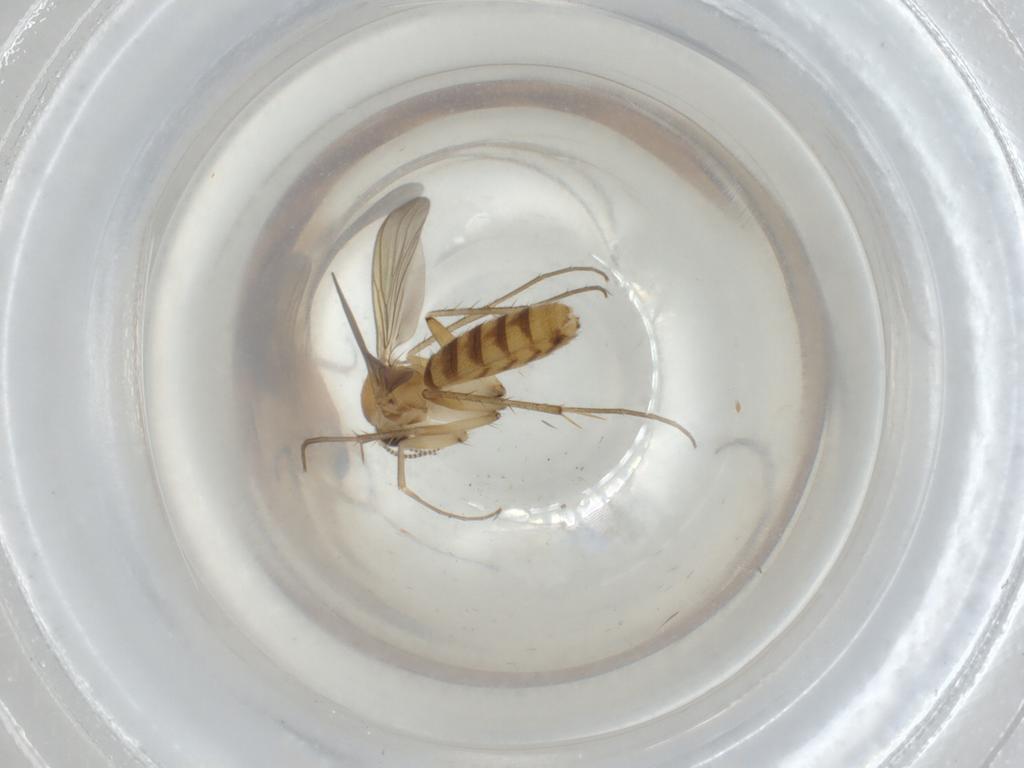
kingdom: Animalia
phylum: Arthropoda
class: Insecta
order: Diptera
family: Mycetophilidae
